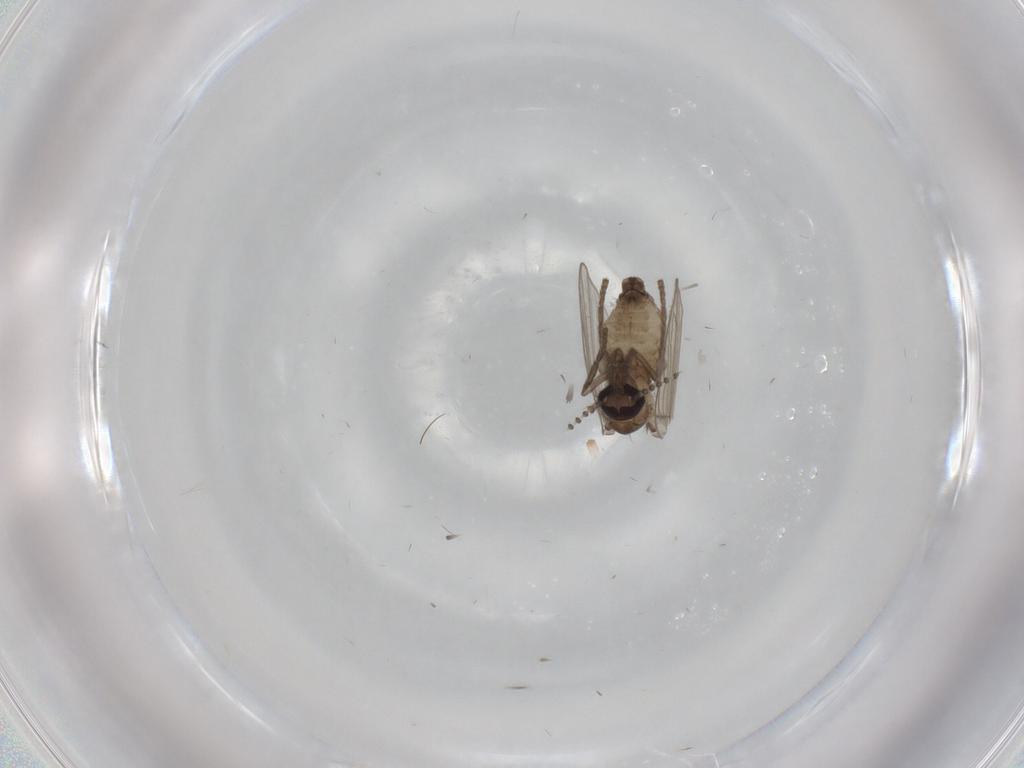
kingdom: Animalia
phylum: Arthropoda
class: Insecta
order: Diptera
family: Psychodidae
